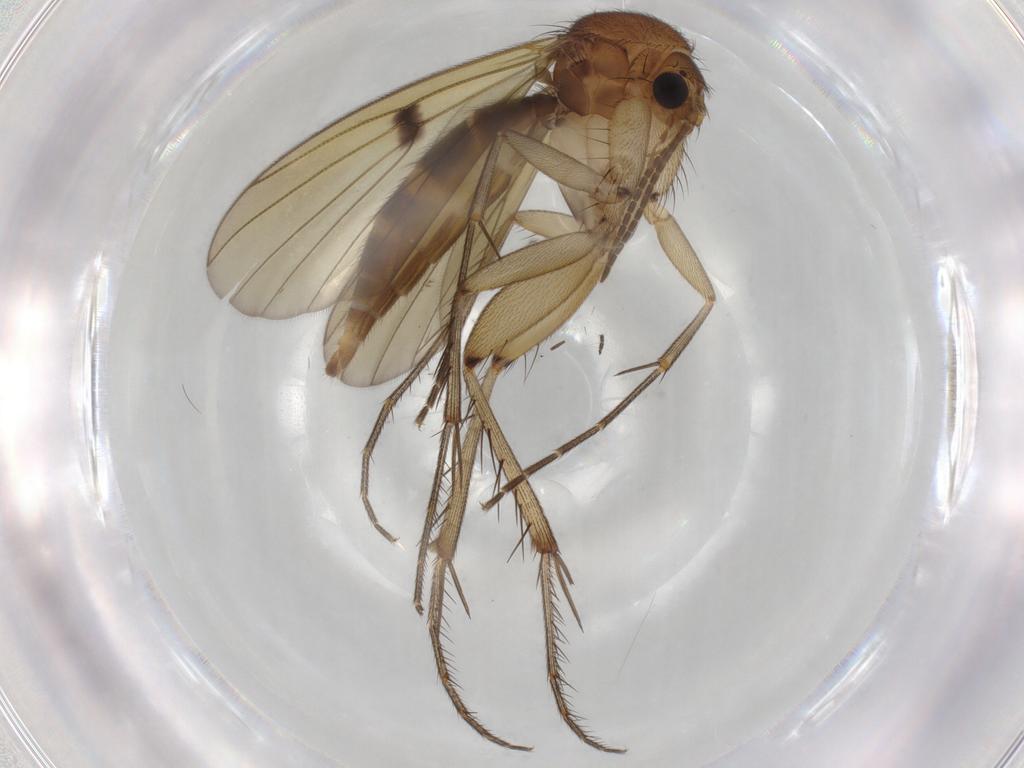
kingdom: Animalia
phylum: Arthropoda
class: Insecta
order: Diptera
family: Mycetophilidae
